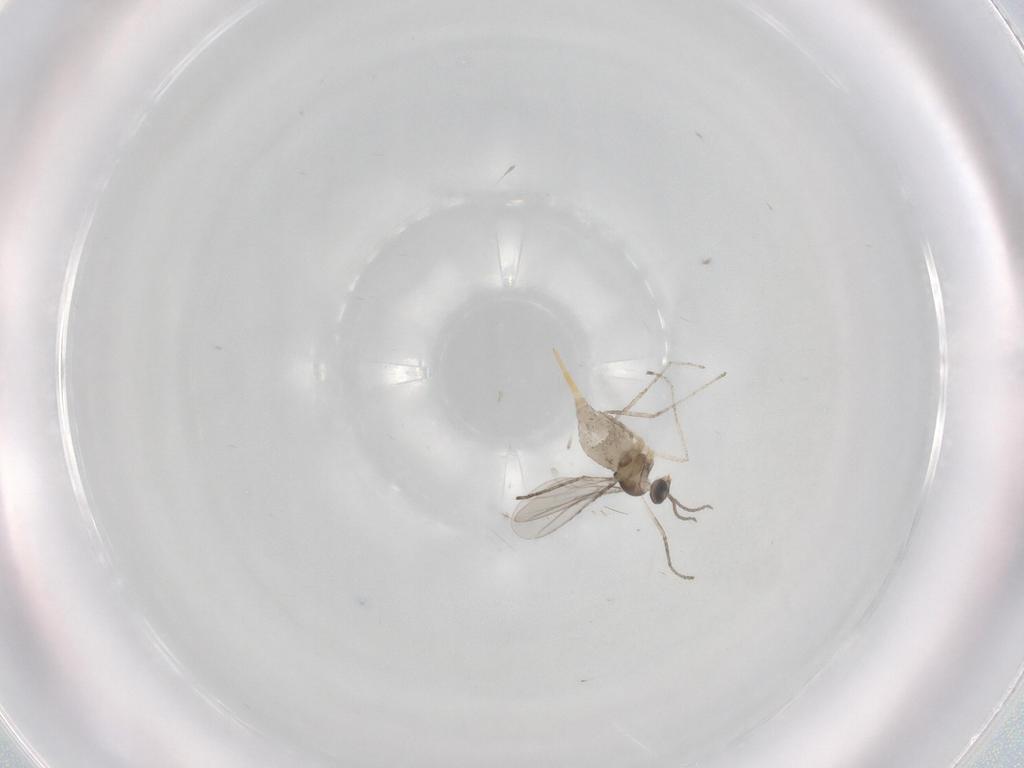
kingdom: Animalia
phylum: Arthropoda
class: Insecta
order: Diptera
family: Cecidomyiidae
